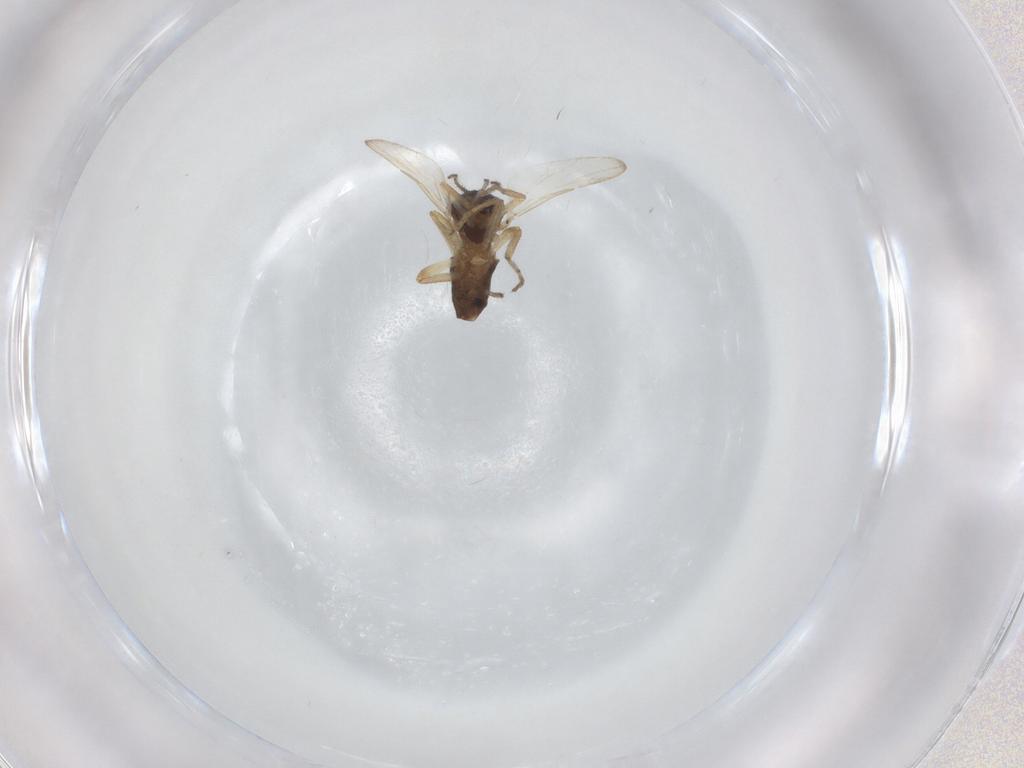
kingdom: Animalia
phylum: Arthropoda
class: Insecta
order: Diptera
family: Ceratopogonidae
